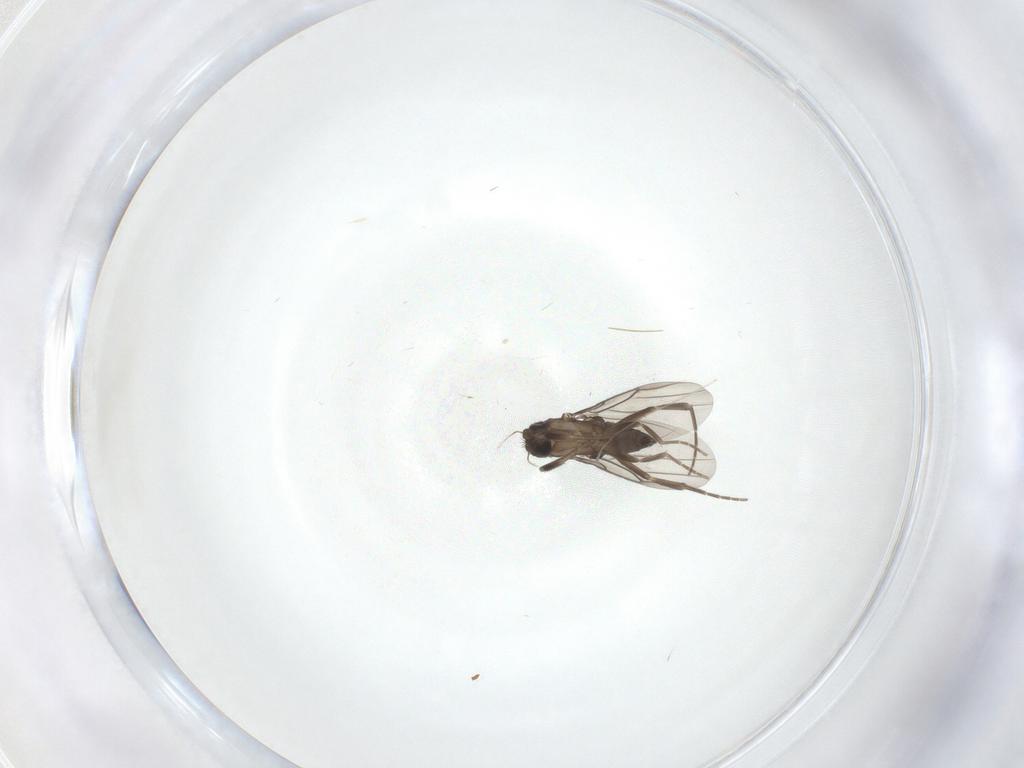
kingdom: Animalia
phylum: Arthropoda
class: Insecta
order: Diptera
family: Cecidomyiidae
